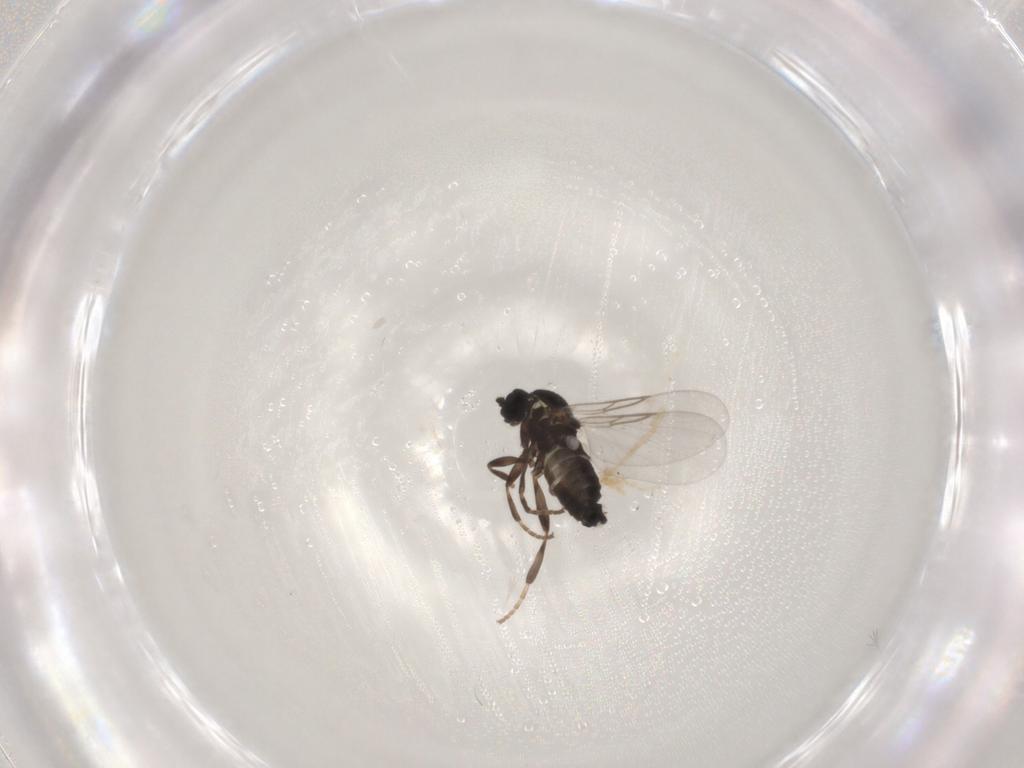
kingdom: Animalia
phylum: Arthropoda
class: Insecta
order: Diptera
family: Scatopsidae
